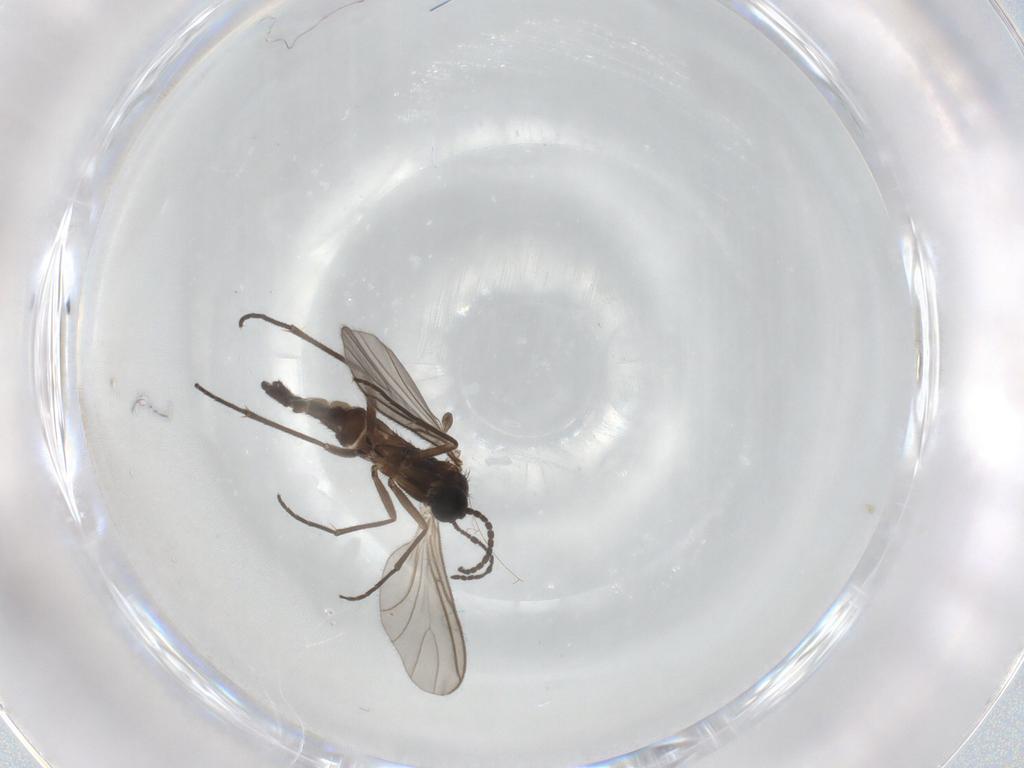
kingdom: Animalia
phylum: Arthropoda
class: Insecta
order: Diptera
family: Sciaridae
